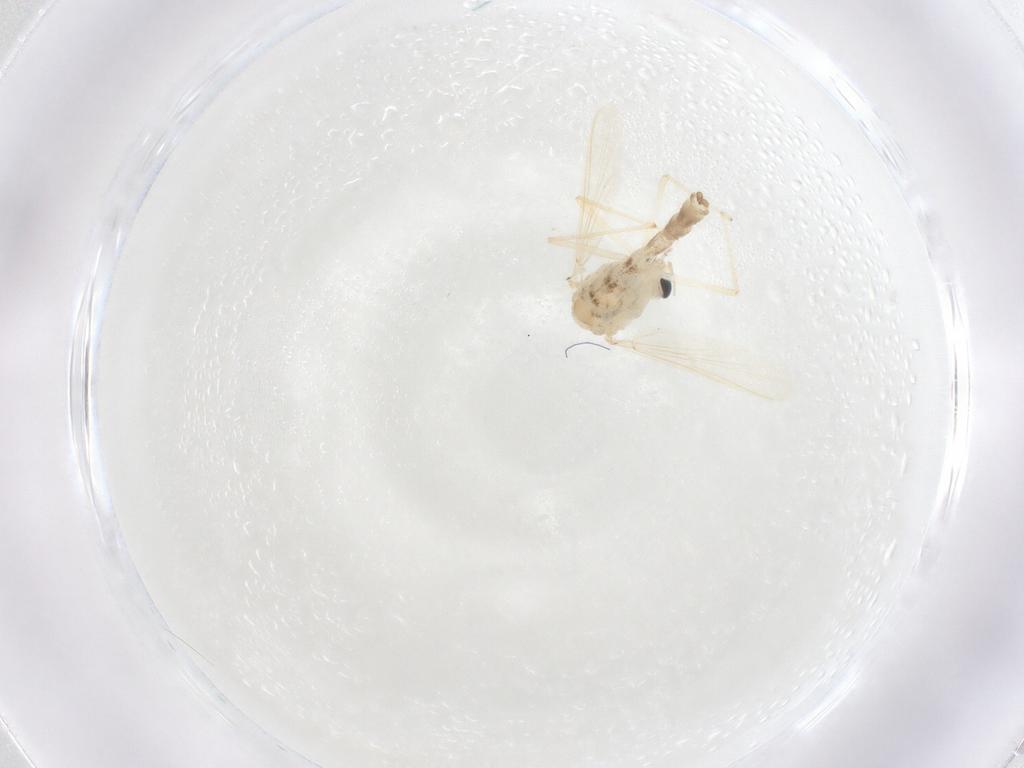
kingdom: Animalia
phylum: Arthropoda
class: Insecta
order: Diptera
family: Chironomidae
